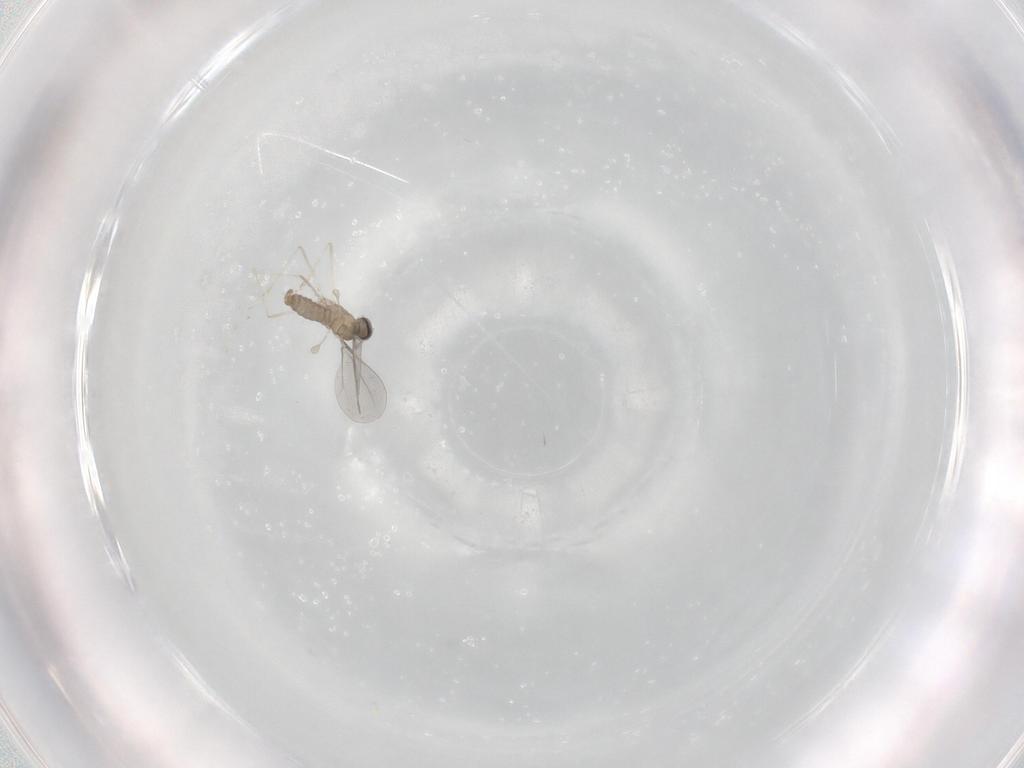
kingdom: Animalia
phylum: Arthropoda
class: Insecta
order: Diptera
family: Cecidomyiidae
